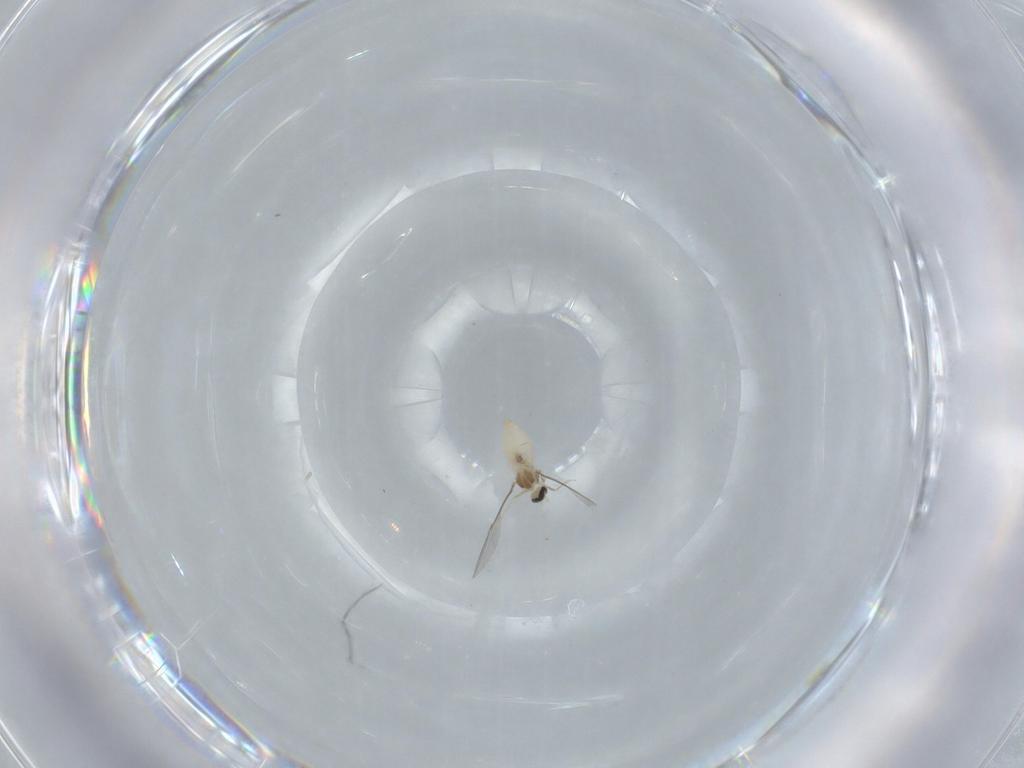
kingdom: Animalia
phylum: Arthropoda
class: Insecta
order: Diptera
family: Cecidomyiidae
